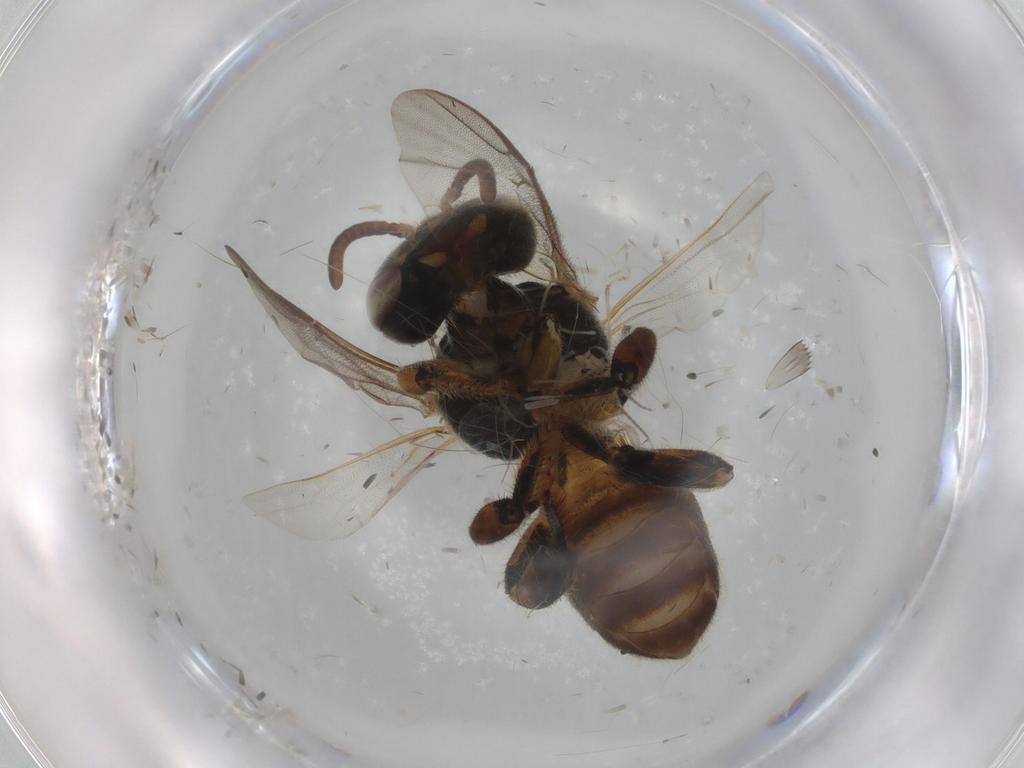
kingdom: Animalia
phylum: Arthropoda
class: Insecta
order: Hymenoptera
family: Apidae
